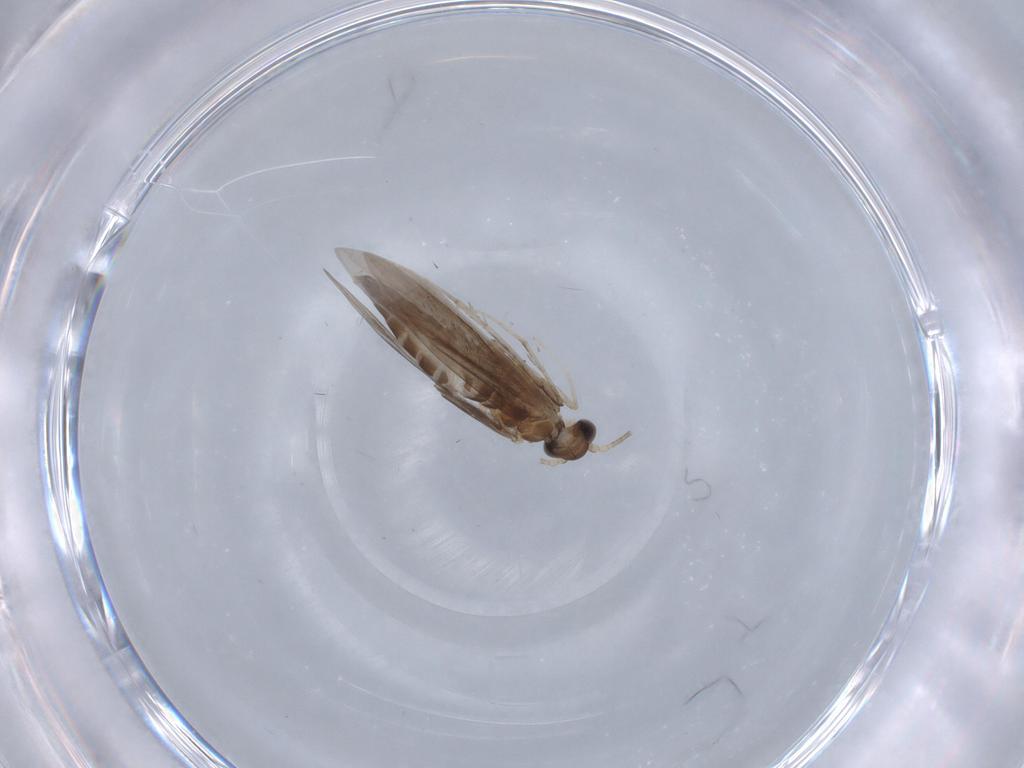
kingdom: Animalia
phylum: Arthropoda
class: Insecta
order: Trichoptera
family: Xiphocentronidae
